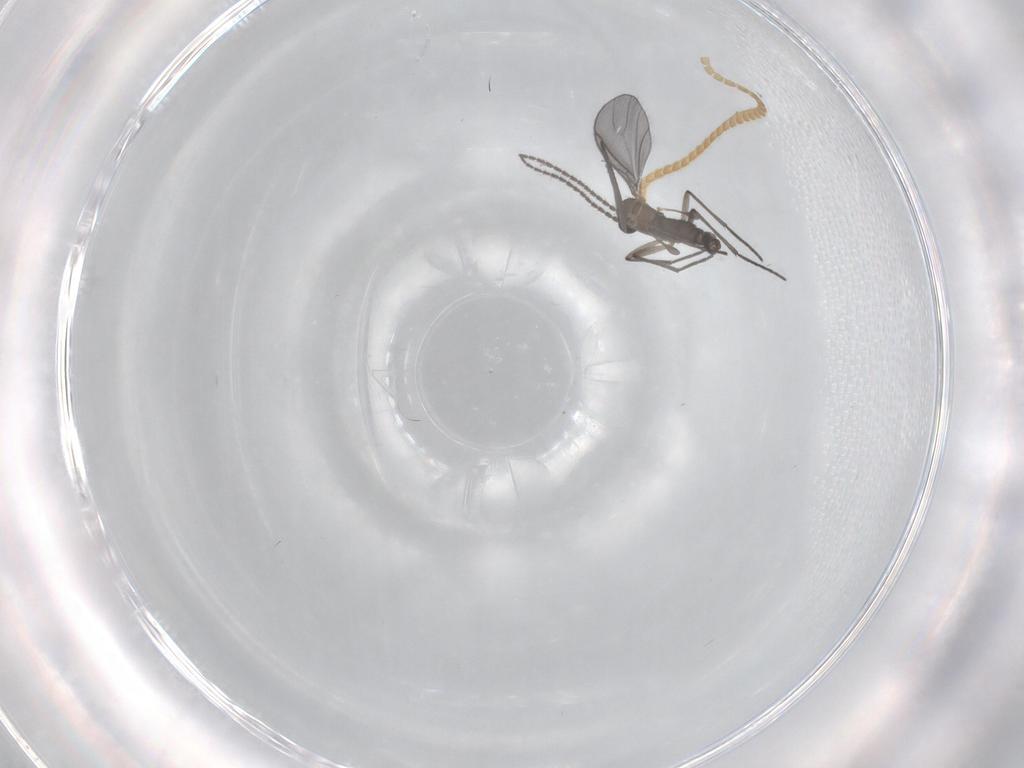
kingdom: Animalia
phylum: Arthropoda
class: Insecta
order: Diptera
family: Sciaridae
